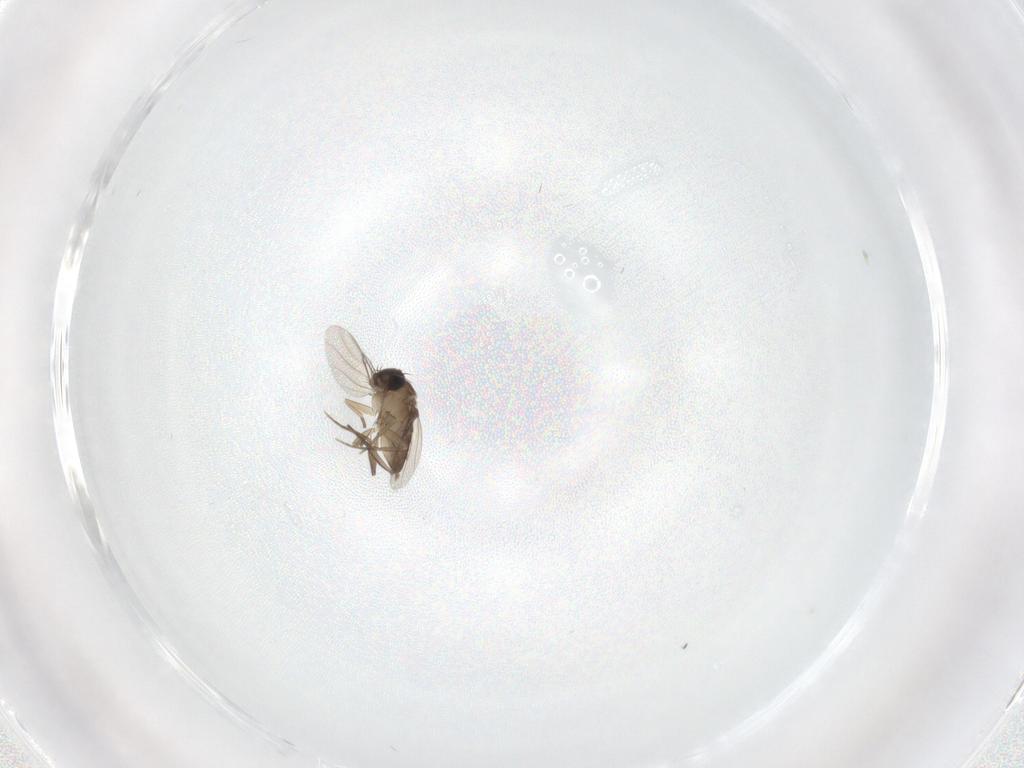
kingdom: Animalia
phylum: Arthropoda
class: Insecta
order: Diptera
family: Phoridae
